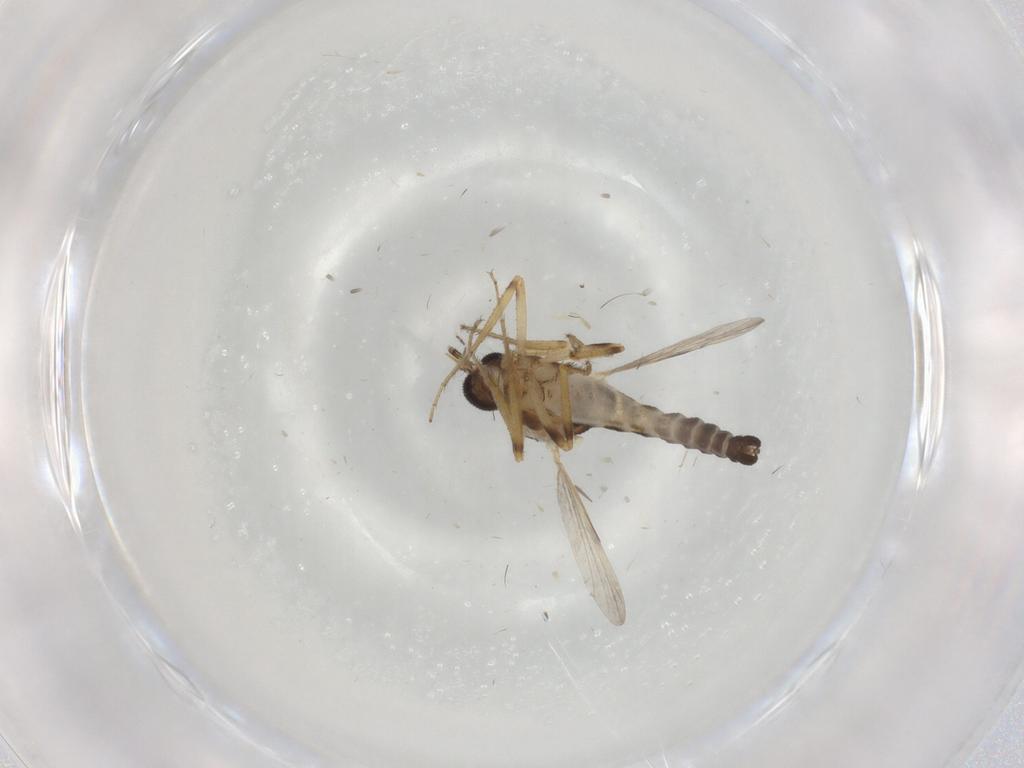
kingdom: Animalia
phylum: Arthropoda
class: Insecta
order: Diptera
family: Chironomidae
